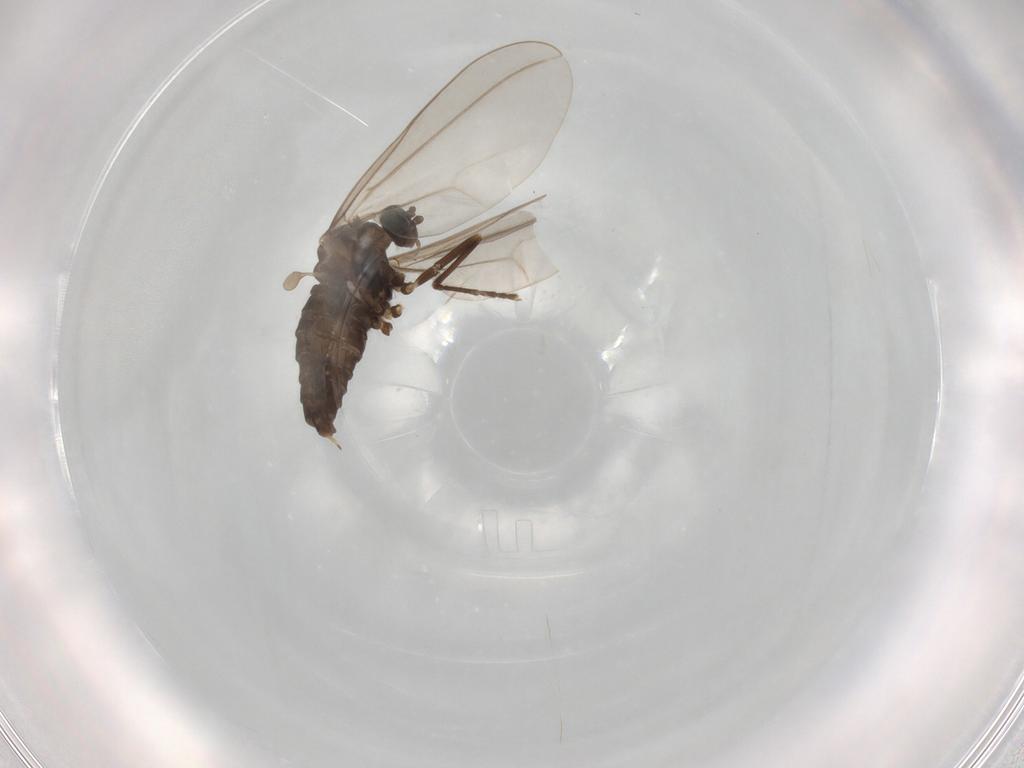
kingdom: Animalia
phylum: Arthropoda
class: Insecta
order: Diptera
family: Cecidomyiidae
